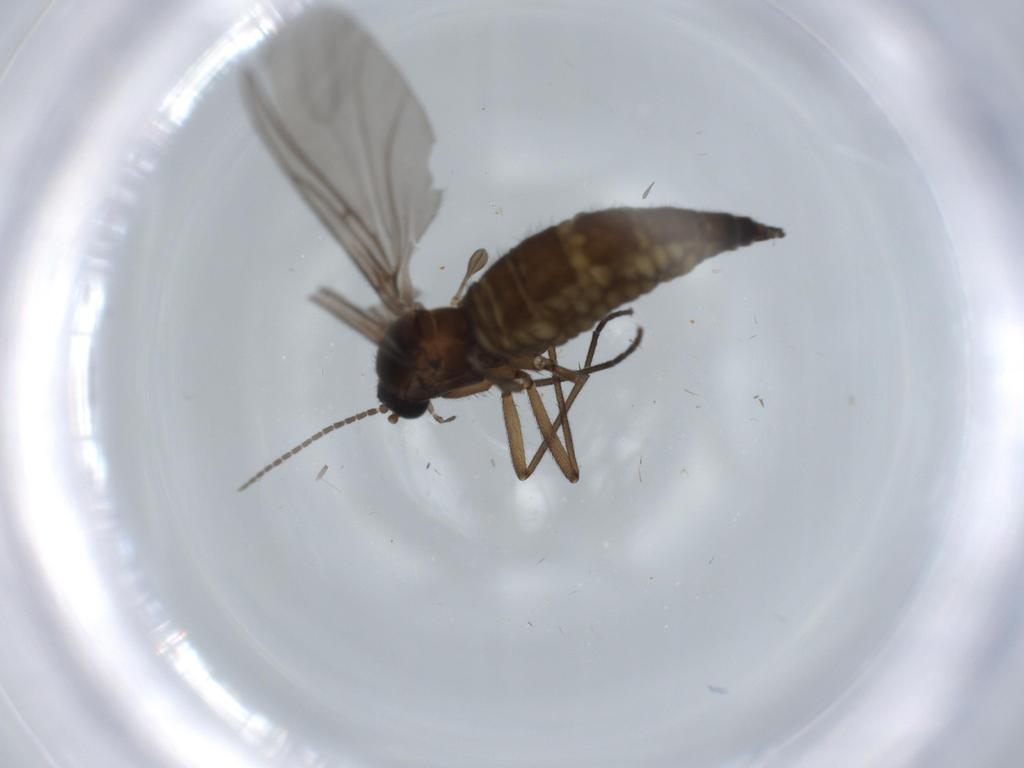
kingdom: Animalia
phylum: Arthropoda
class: Insecta
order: Diptera
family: Sciaridae
